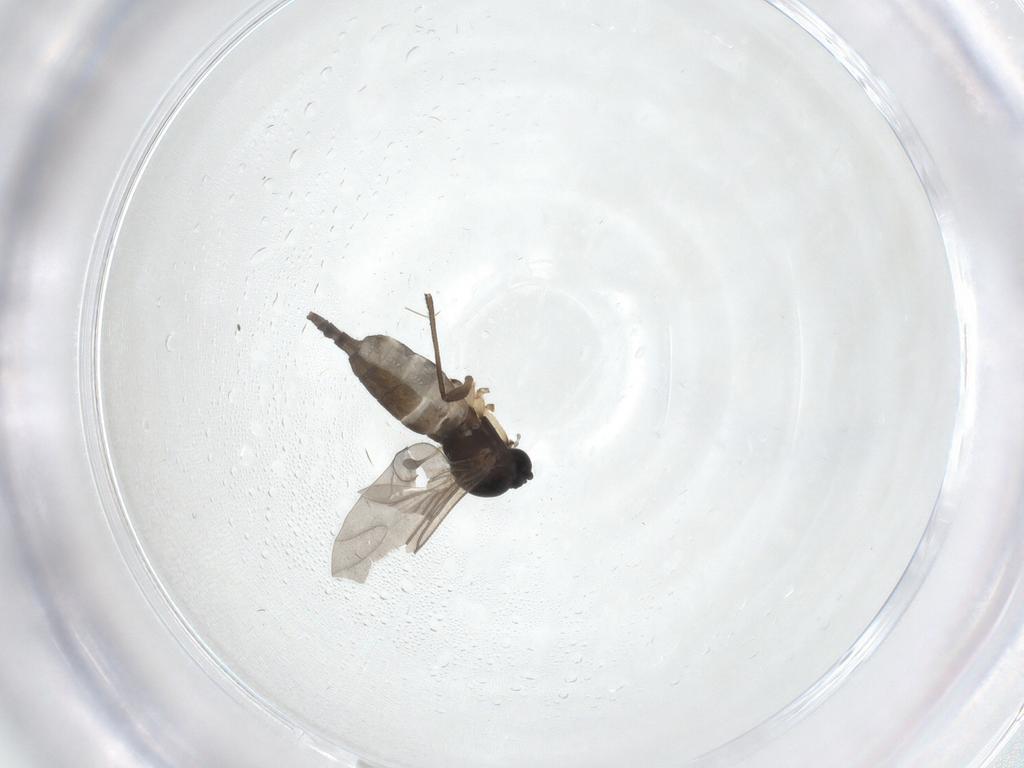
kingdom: Animalia
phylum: Arthropoda
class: Insecta
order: Diptera
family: Sciaridae
